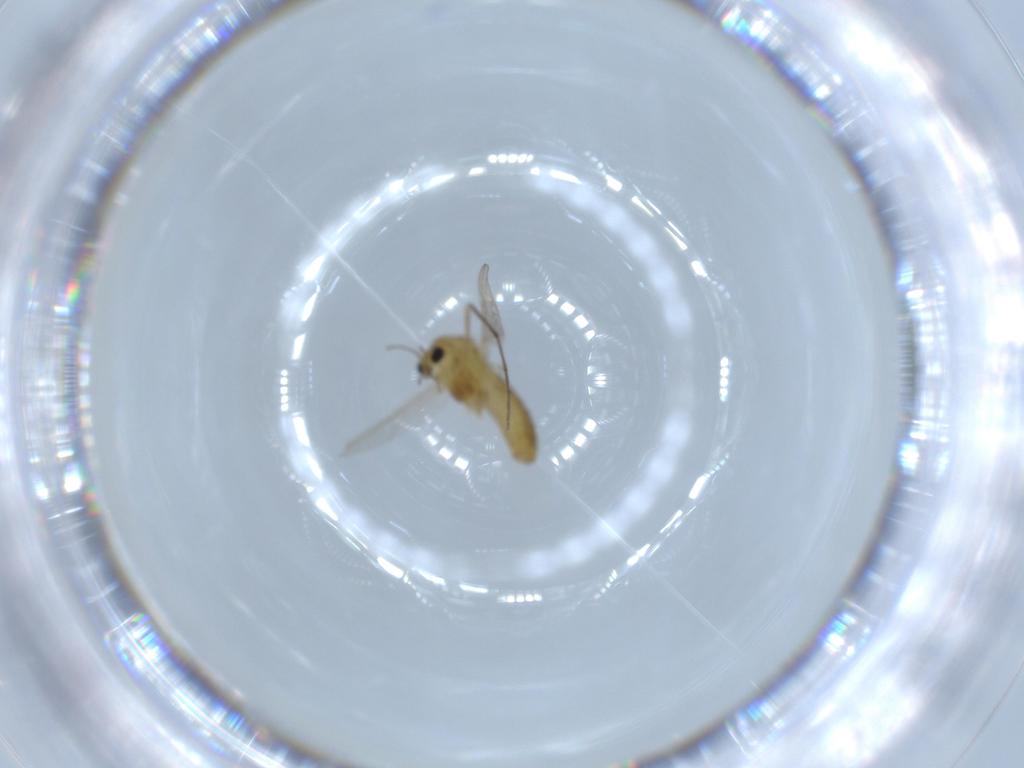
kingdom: Animalia
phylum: Arthropoda
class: Insecta
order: Diptera
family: Chironomidae
